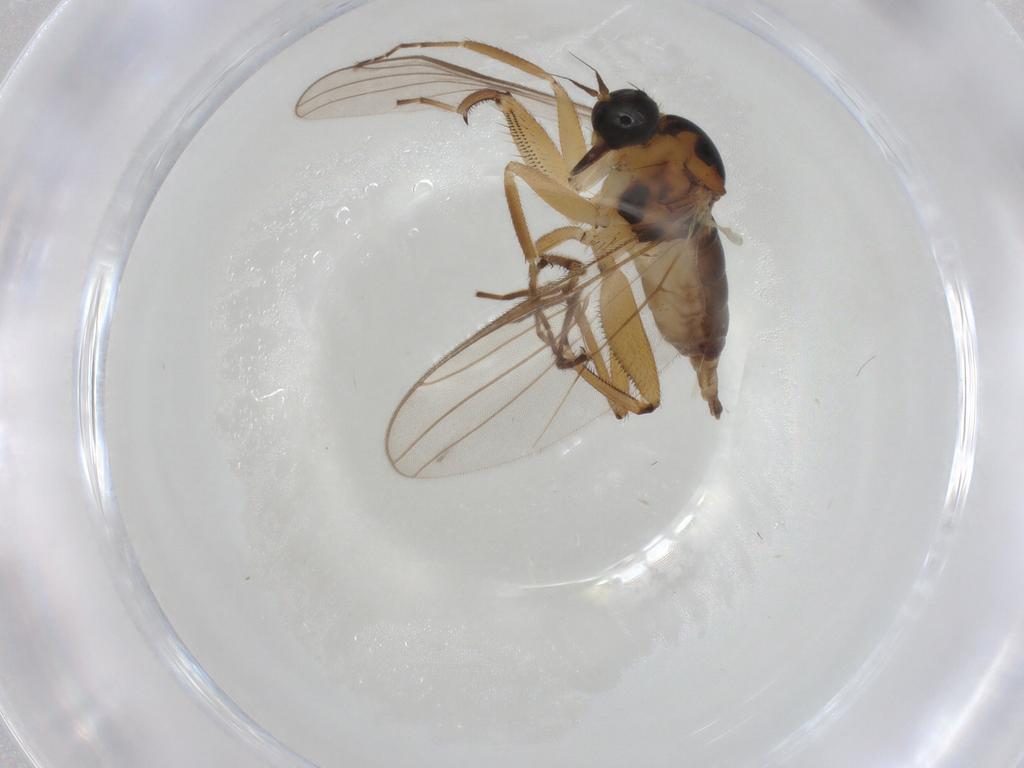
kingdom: Animalia
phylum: Arthropoda
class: Insecta
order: Diptera
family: Hybotidae
